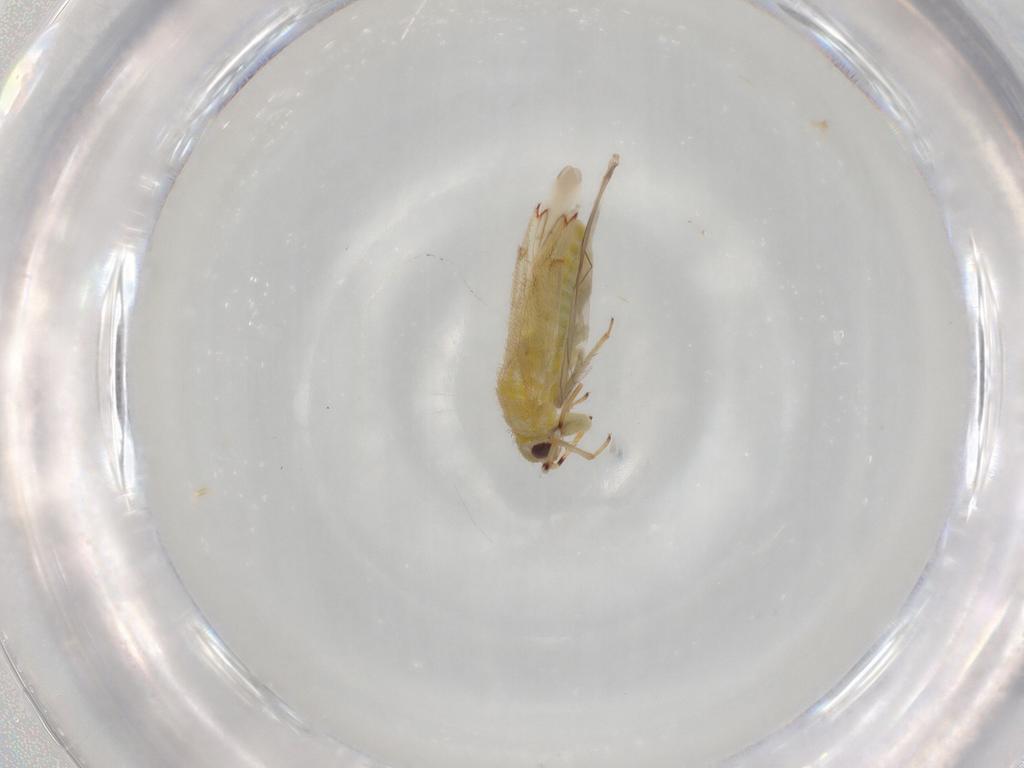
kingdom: Animalia
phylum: Arthropoda
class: Insecta
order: Hemiptera
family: Miridae
